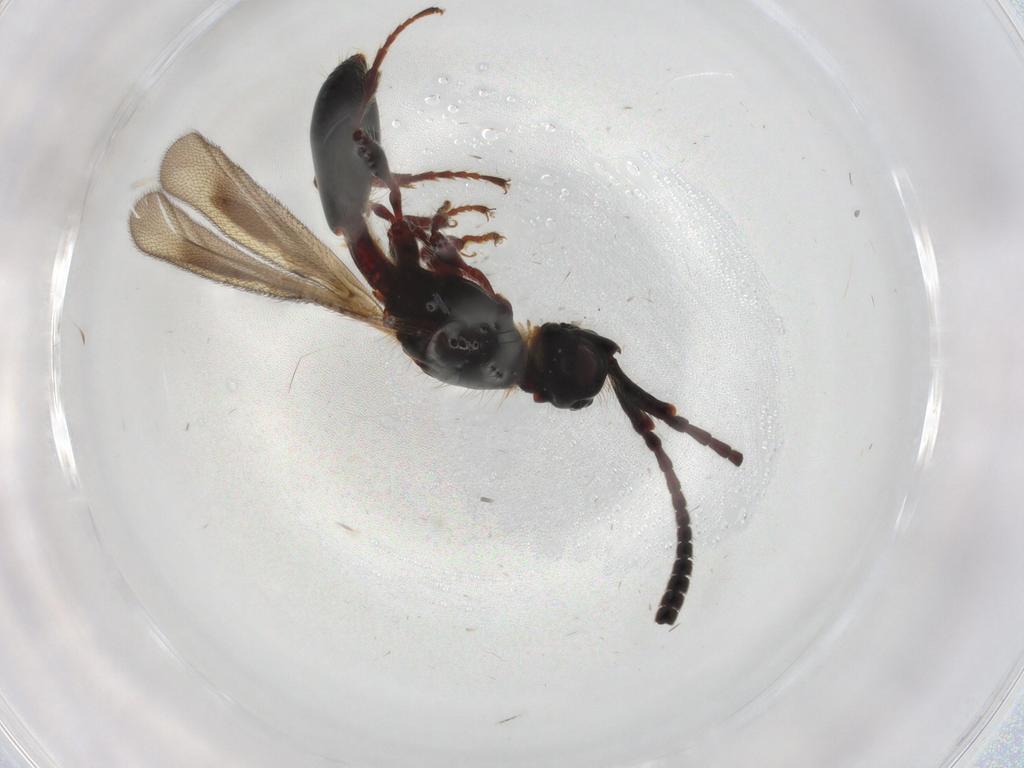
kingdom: Animalia
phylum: Arthropoda
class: Insecta
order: Hymenoptera
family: Diapriidae
